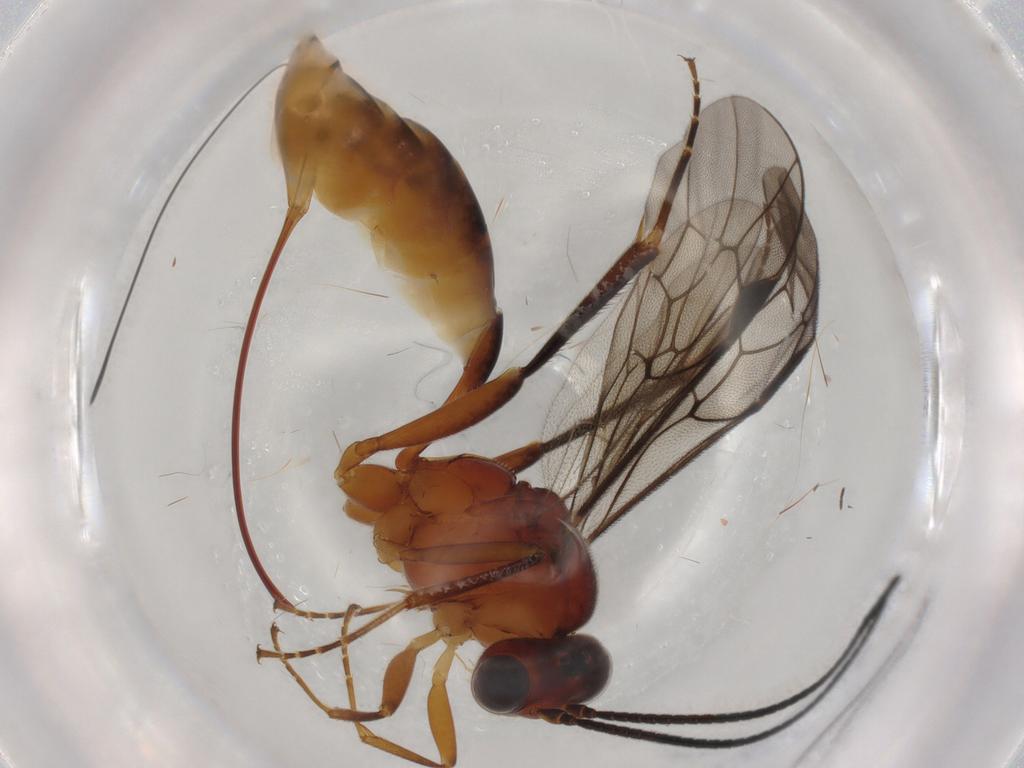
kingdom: Animalia
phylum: Arthropoda
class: Insecta
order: Hymenoptera
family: Ichneumonidae
